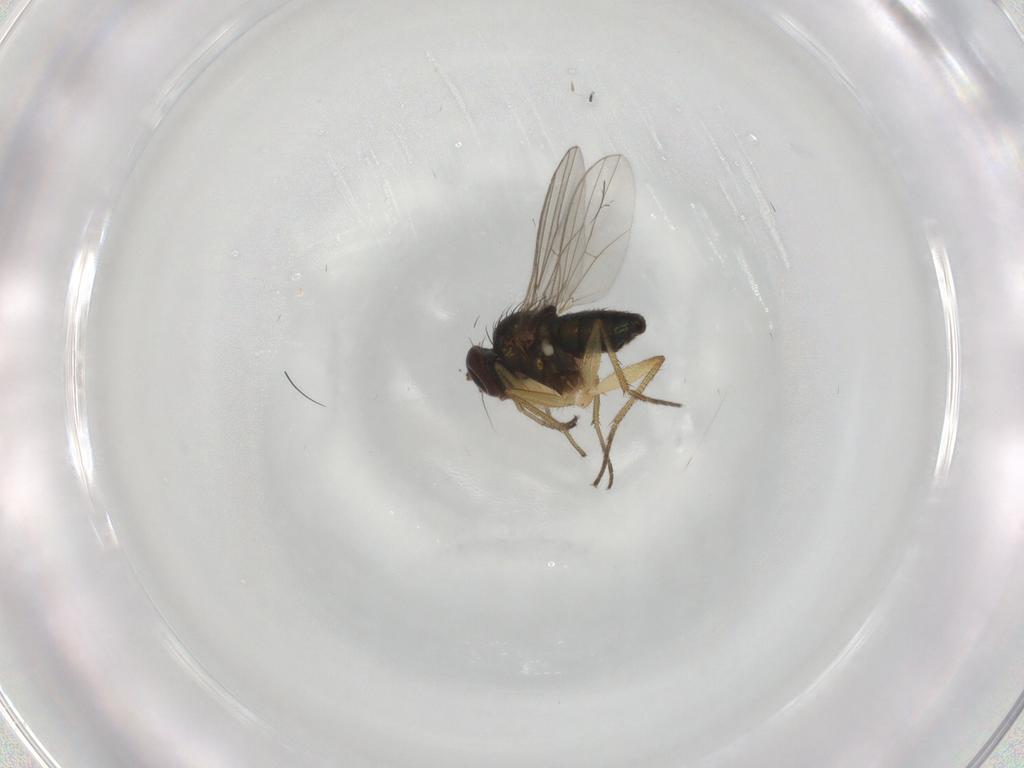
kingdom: Animalia
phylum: Arthropoda
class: Insecta
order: Diptera
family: Dolichopodidae
